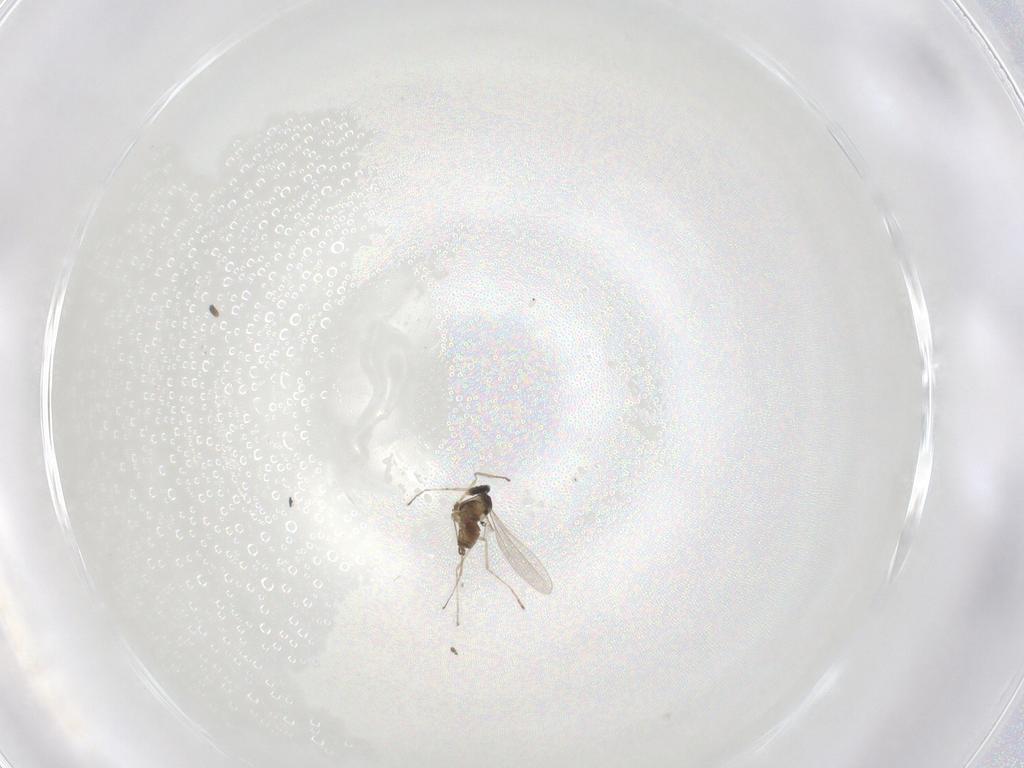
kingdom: Animalia
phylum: Arthropoda
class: Insecta
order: Diptera
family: Cecidomyiidae
